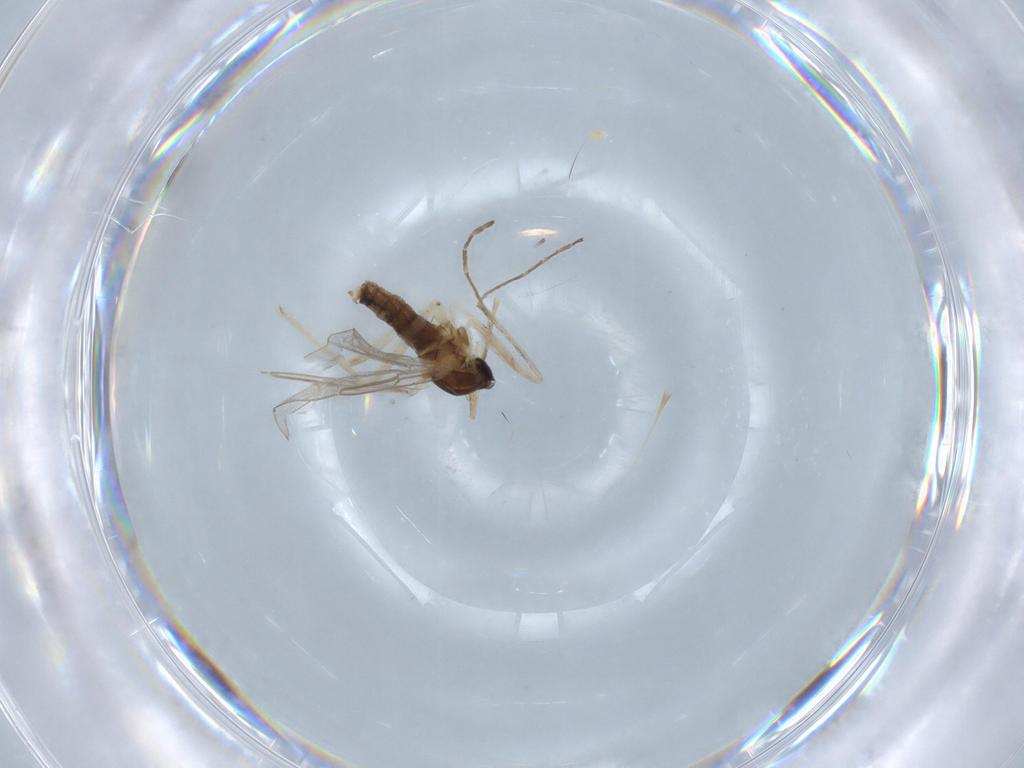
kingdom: Animalia
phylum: Arthropoda
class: Insecta
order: Diptera
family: Cecidomyiidae
